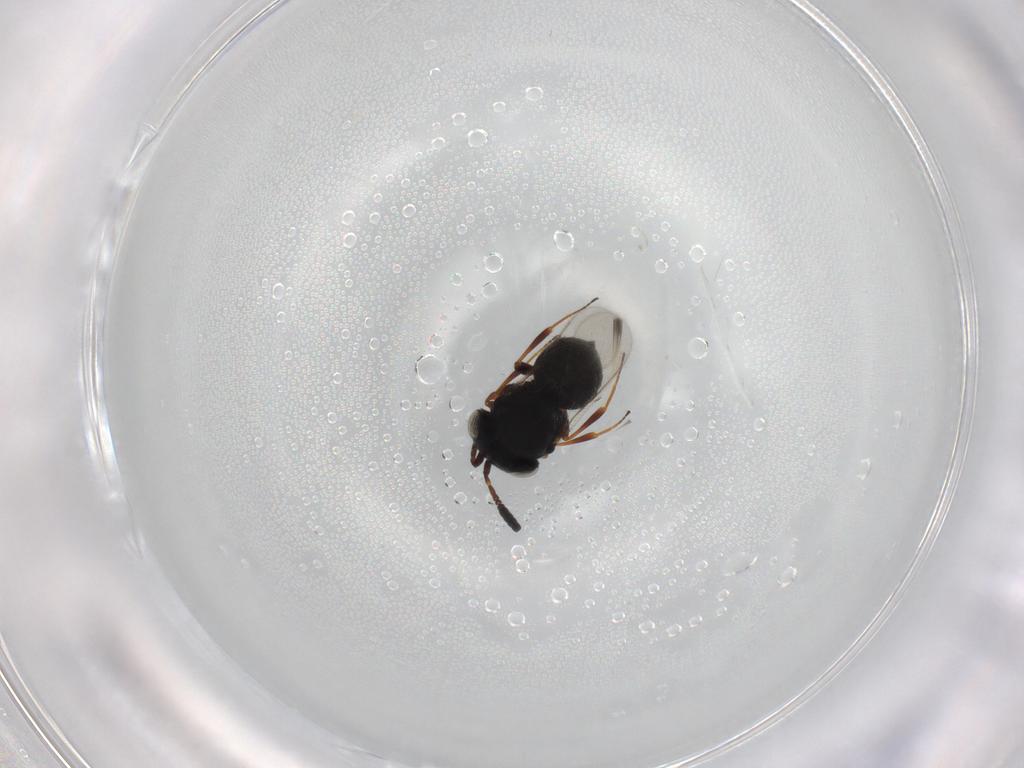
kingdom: Animalia
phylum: Arthropoda
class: Insecta
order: Hymenoptera
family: Scelionidae
